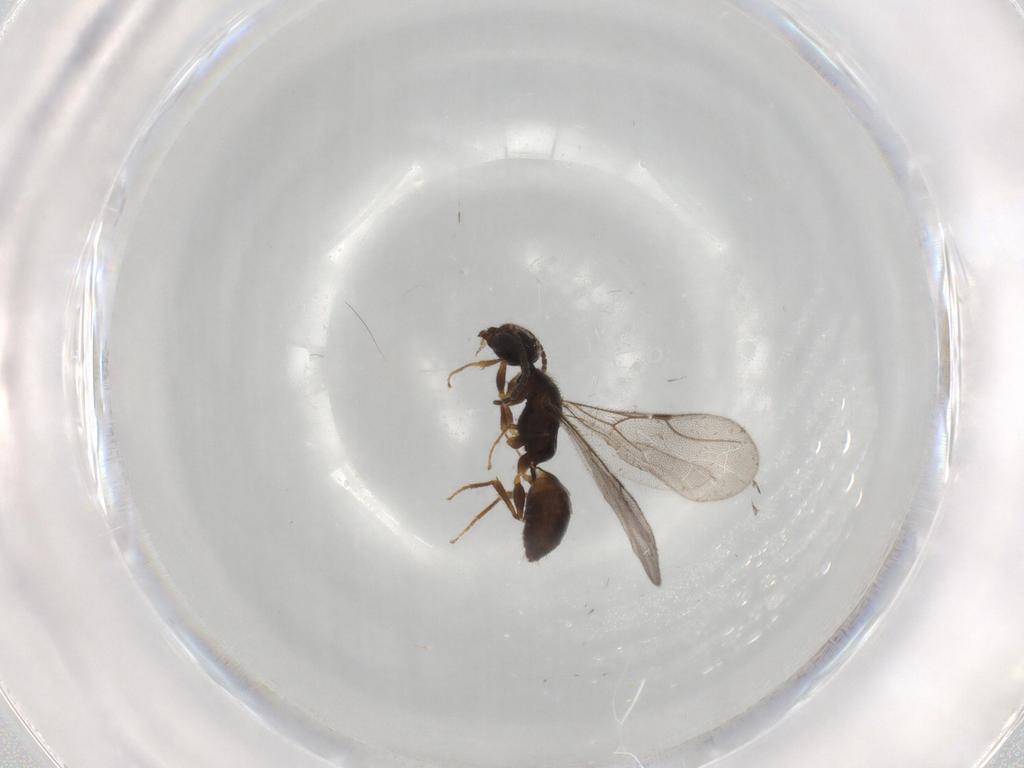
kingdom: Animalia
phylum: Arthropoda
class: Insecta
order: Hymenoptera
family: Bethylidae
